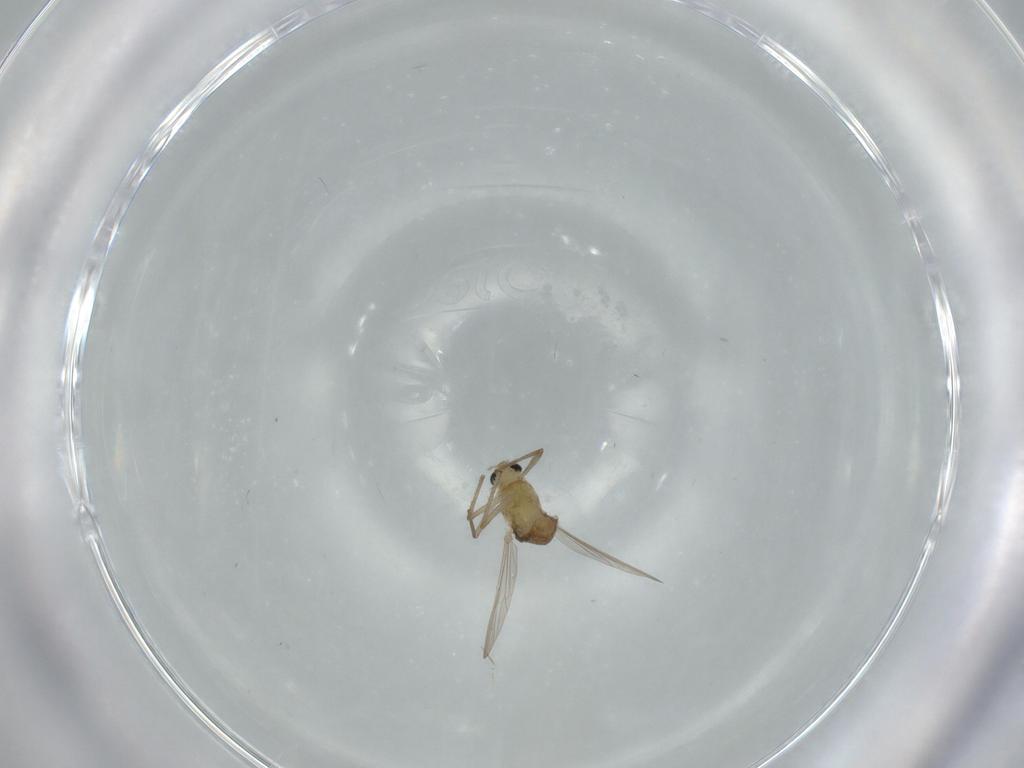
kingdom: Animalia
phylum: Arthropoda
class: Insecta
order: Diptera
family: Chironomidae
